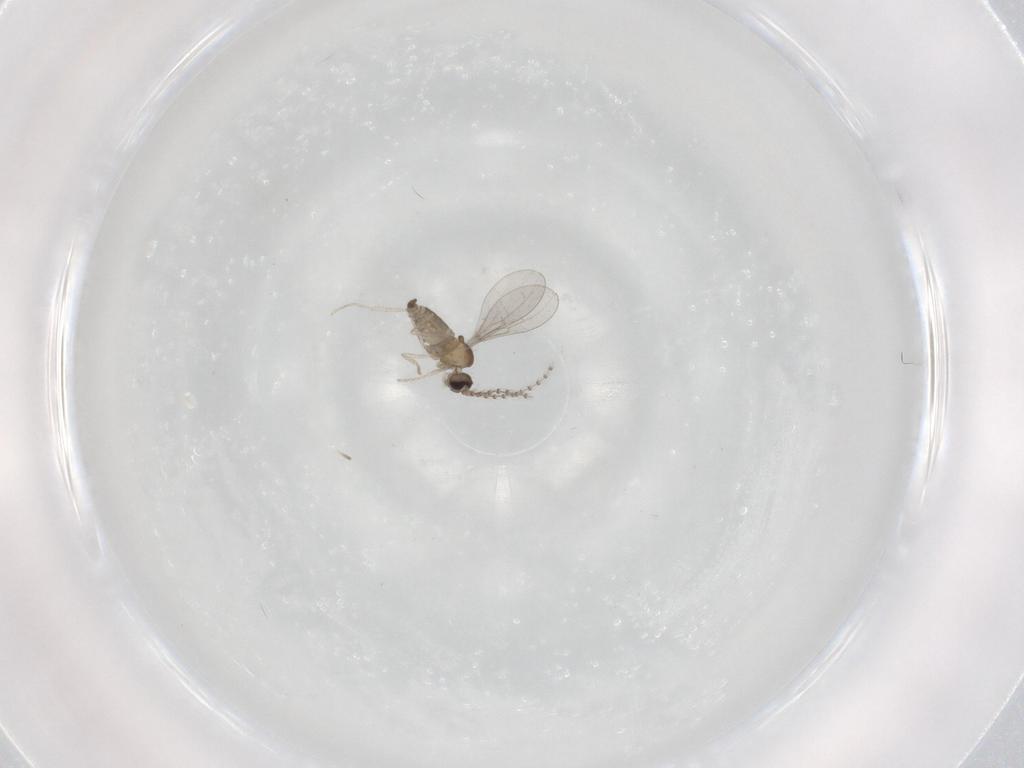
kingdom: Animalia
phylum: Arthropoda
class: Insecta
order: Diptera
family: Cecidomyiidae
